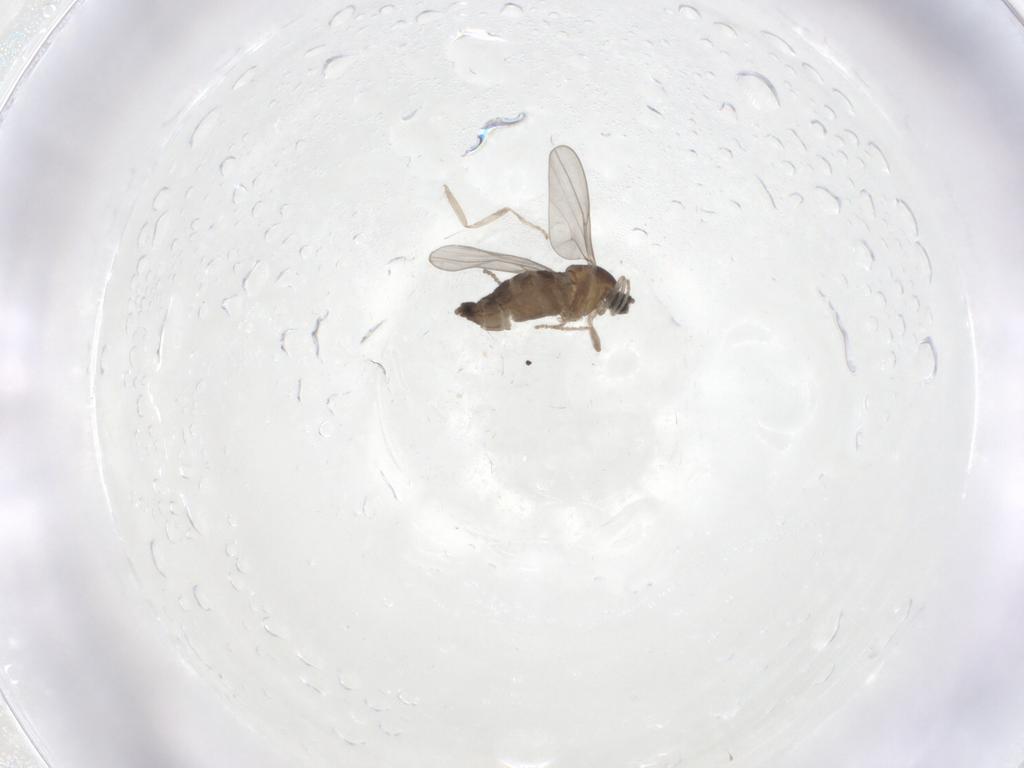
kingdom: Animalia
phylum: Arthropoda
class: Insecta
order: Diptera
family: Cecidomyiidae
